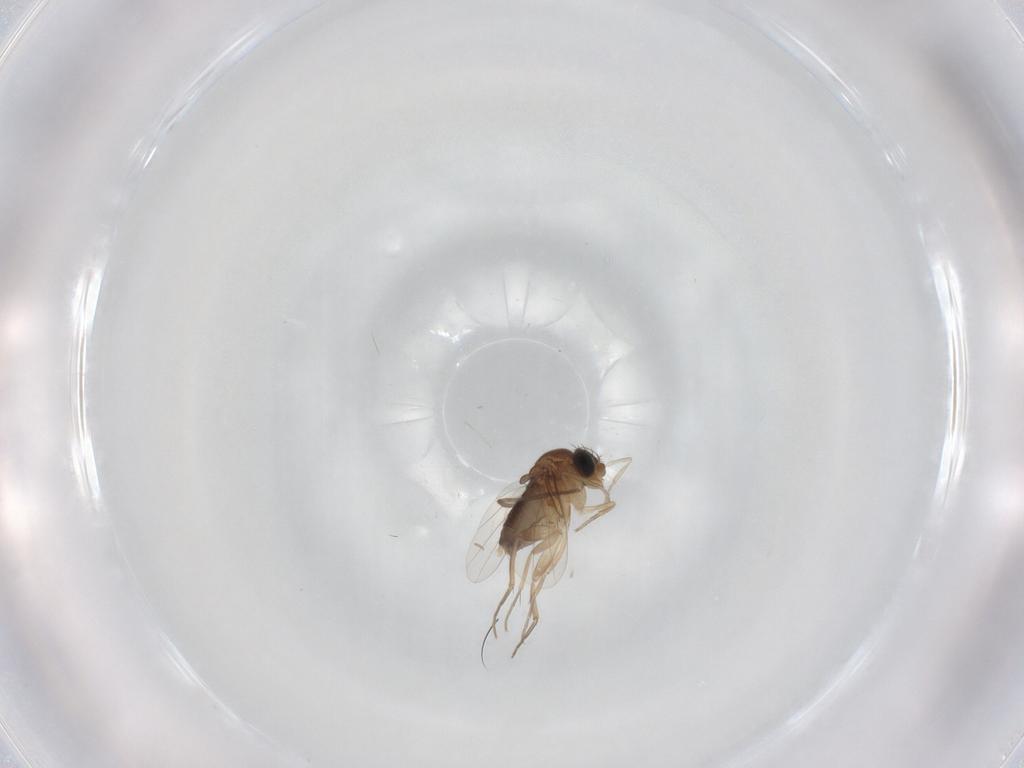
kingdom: Animalia
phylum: Arthropoda
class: Insecta
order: Diptera
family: Phoridae
